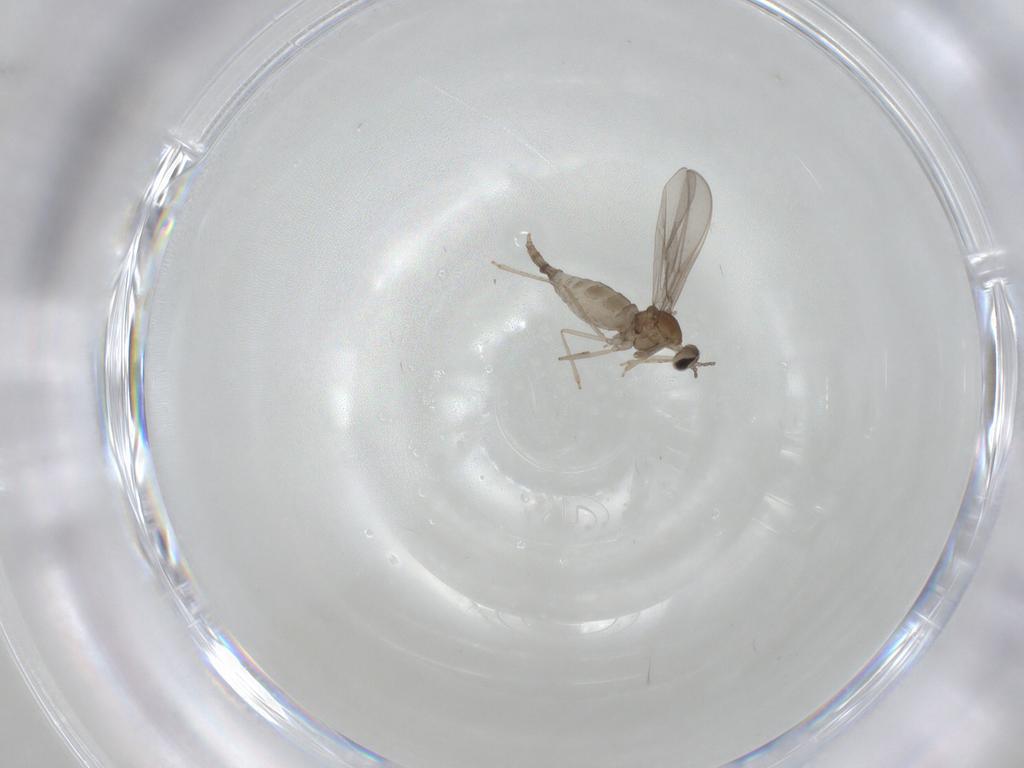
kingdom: Animalia
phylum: Arthropoda
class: Insecta
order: Diptera
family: Cecidomyiidae
